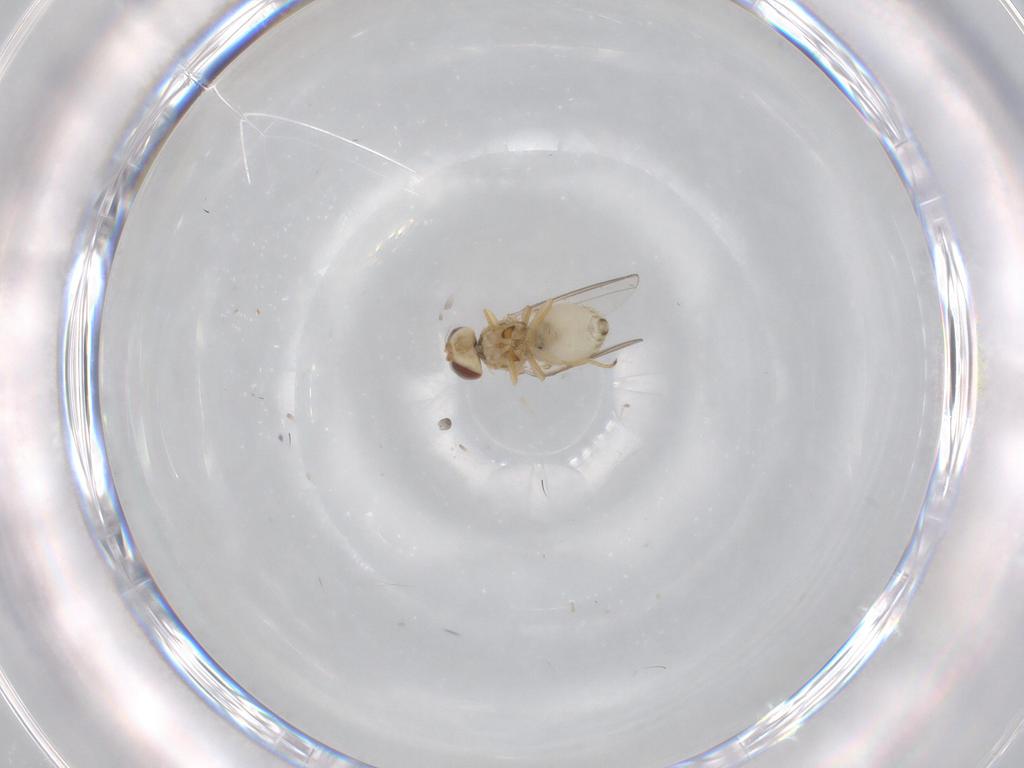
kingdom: Animalia
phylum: Arthropoda
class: Insecta
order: Diptera
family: Chyromyidae
